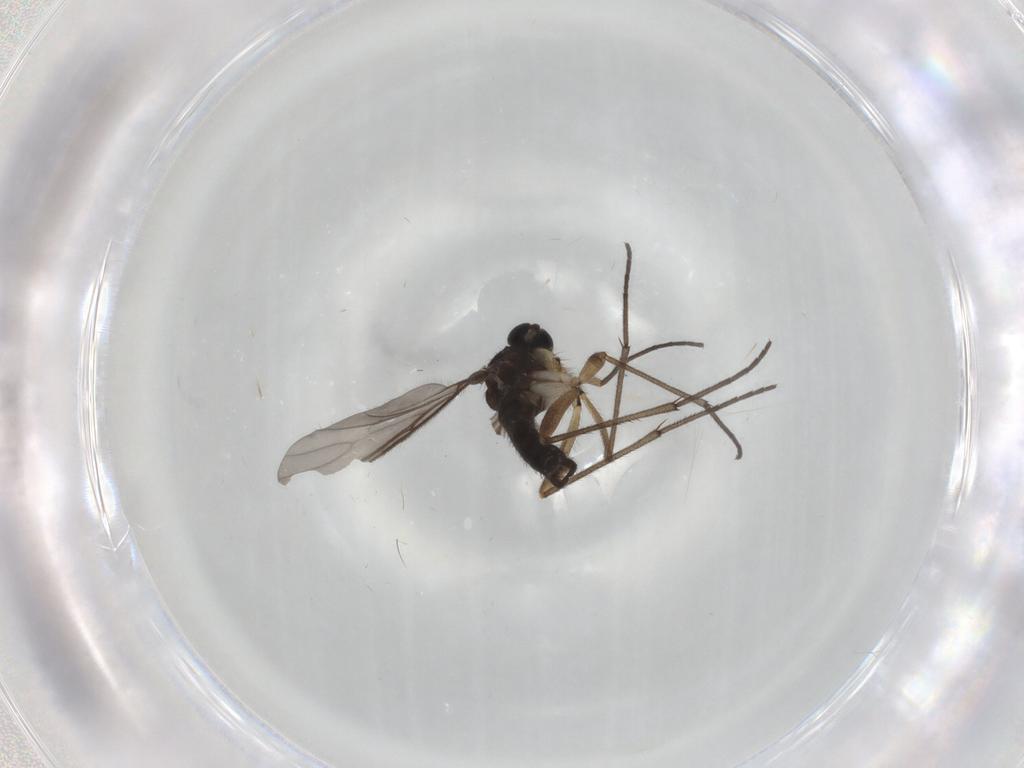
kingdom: Animalia
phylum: Arthropoda
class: Insecta
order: Diptera
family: Sciaridae
